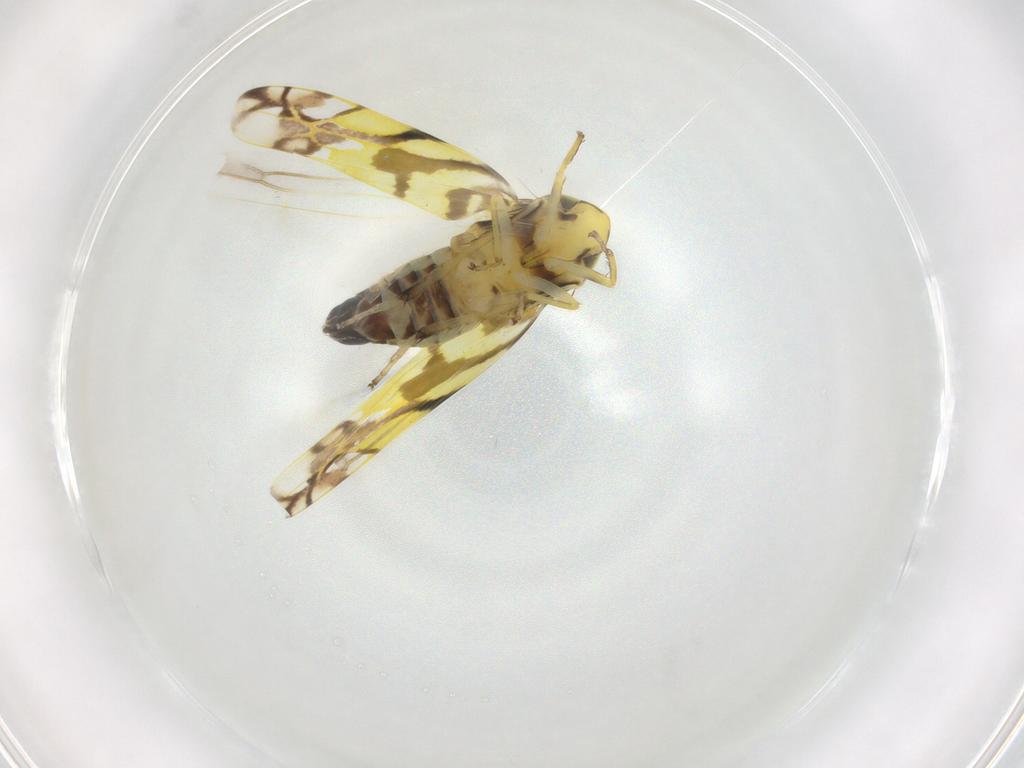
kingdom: Animalia
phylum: Arthropoda
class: Insecta
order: Hemiptera
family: Cicadellidae
